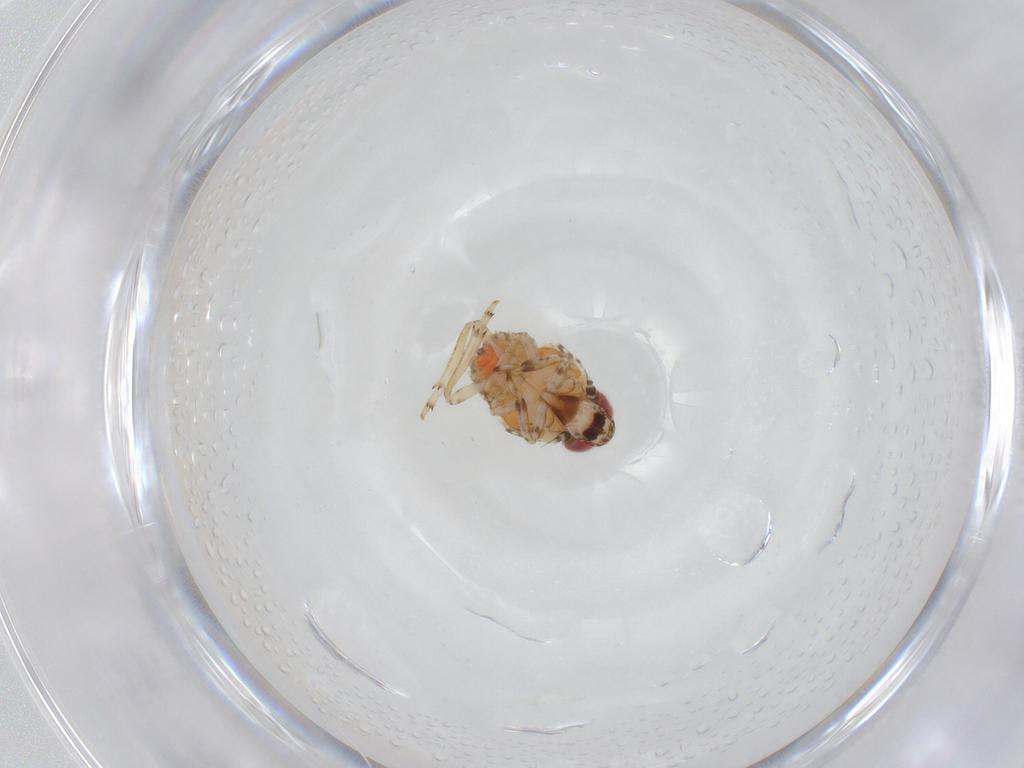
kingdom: Animalia
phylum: Arthropoda
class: Insecta
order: Hemiptera
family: Issidae
